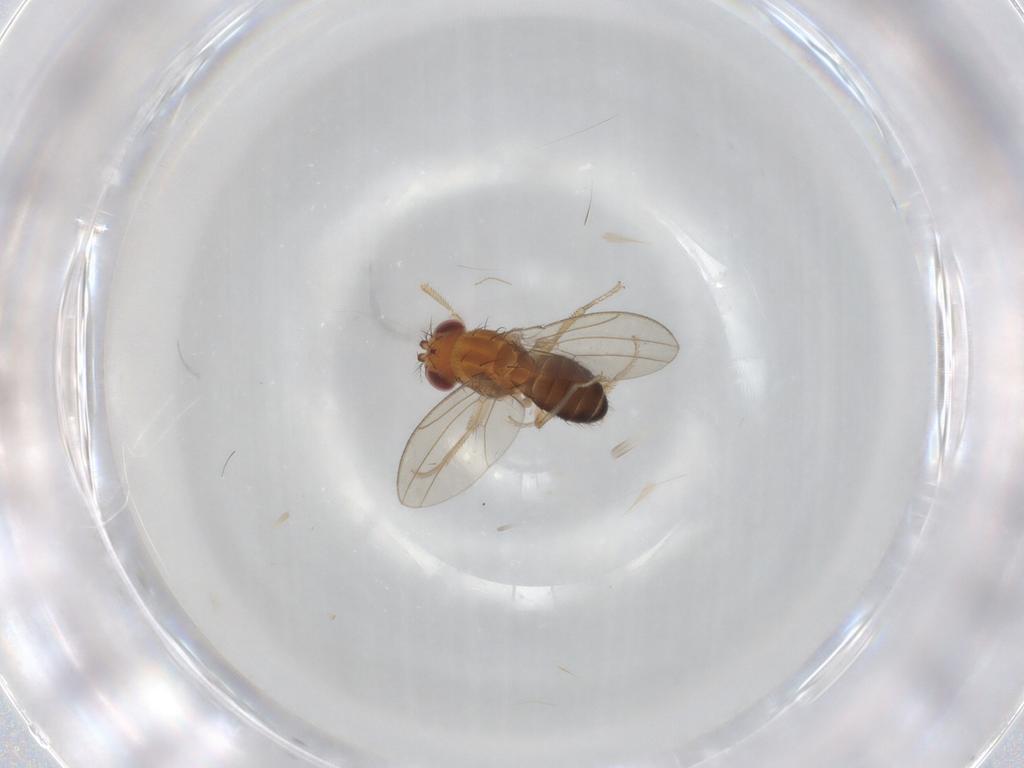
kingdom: Animalia
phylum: Arthropoda
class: Insecta
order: Diptera
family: Drosophilidae
